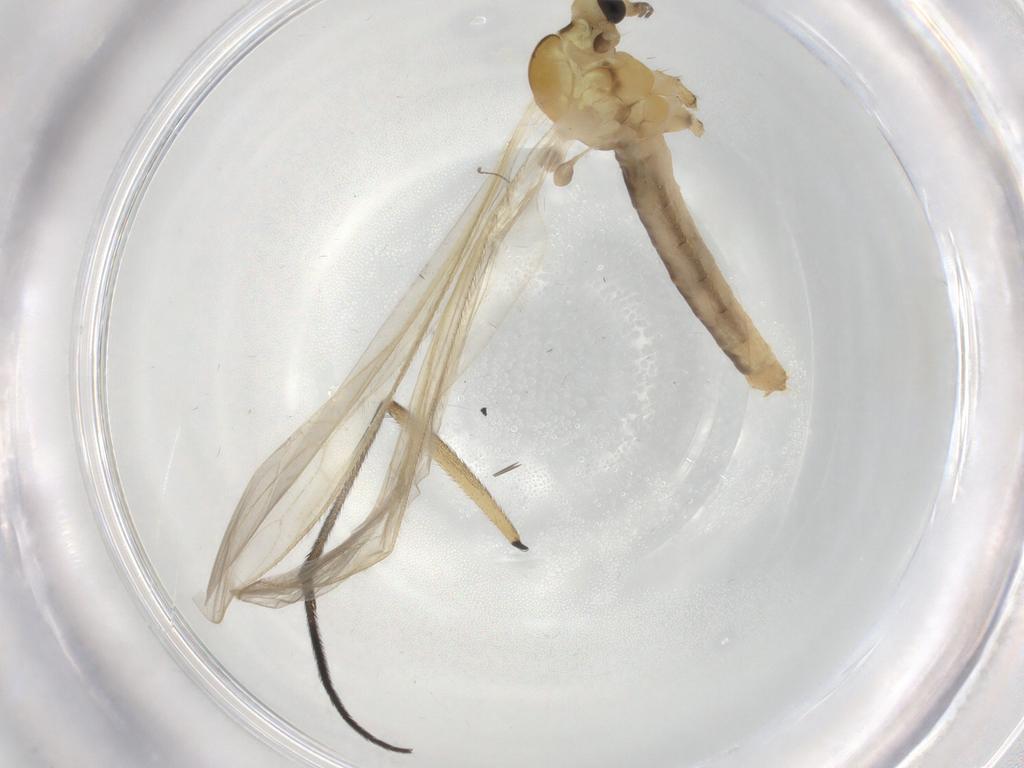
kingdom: Animalia
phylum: Arthropoda
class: Insecta
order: Diptera
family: Limoniidae
